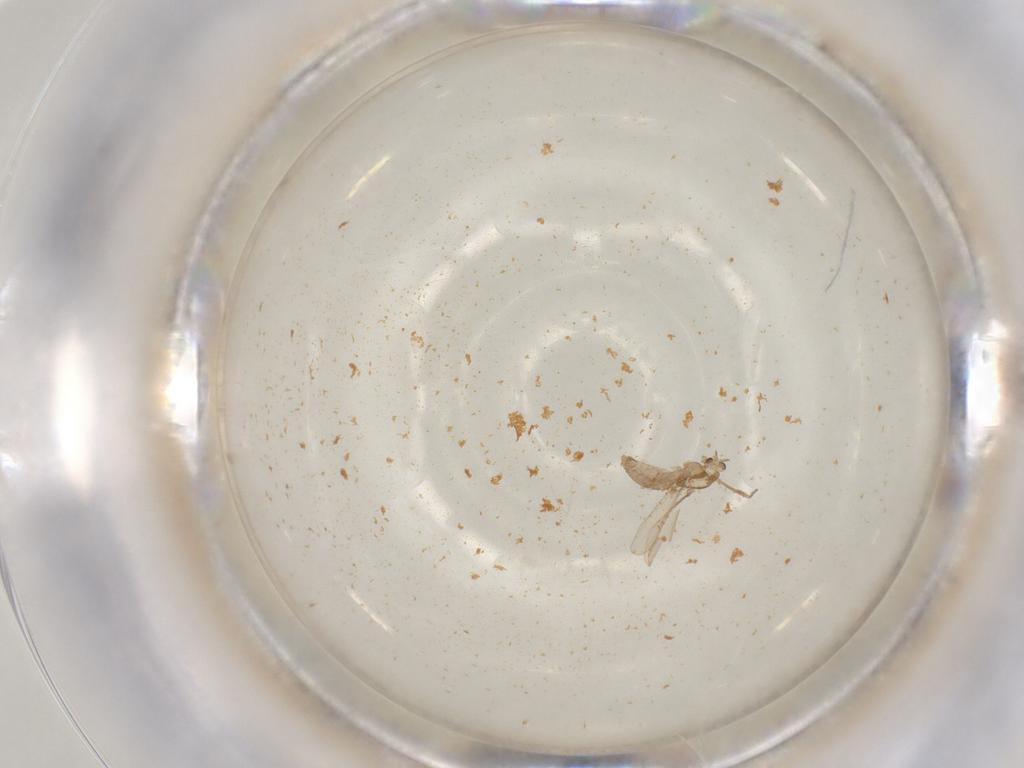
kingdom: Animalia
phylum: Arthropoda
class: Insecta
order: Diptera
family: Chironomidae
